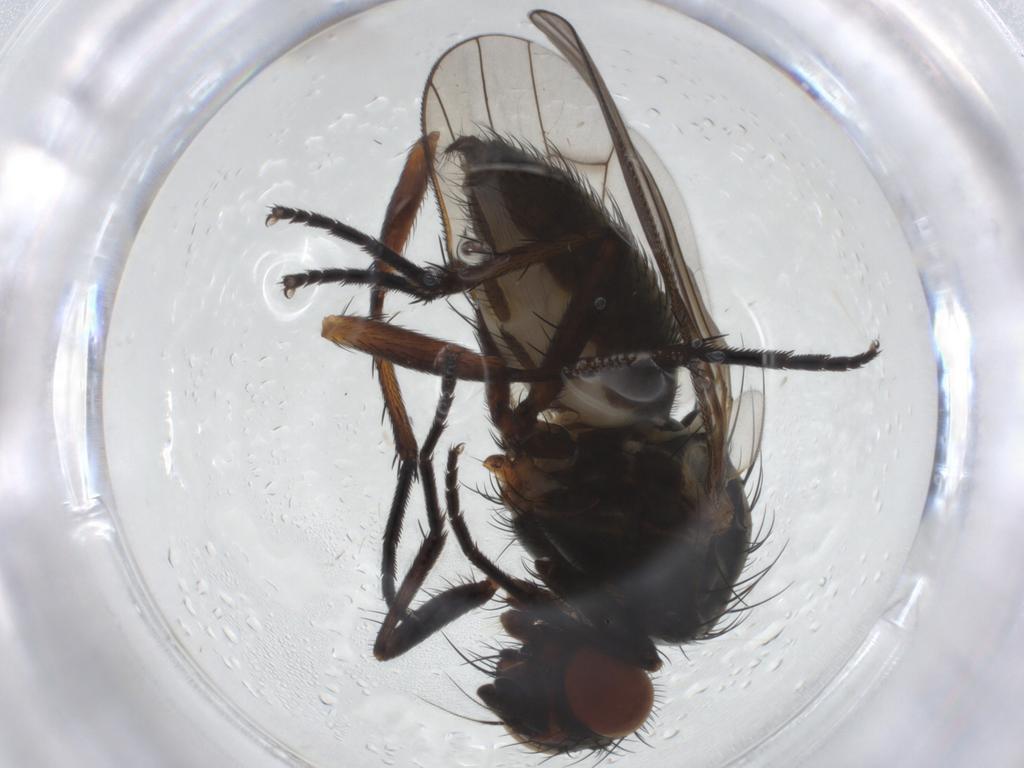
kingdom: Animalia
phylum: Arthropoda
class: Insecta
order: Diptera
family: Anthomyiidae
